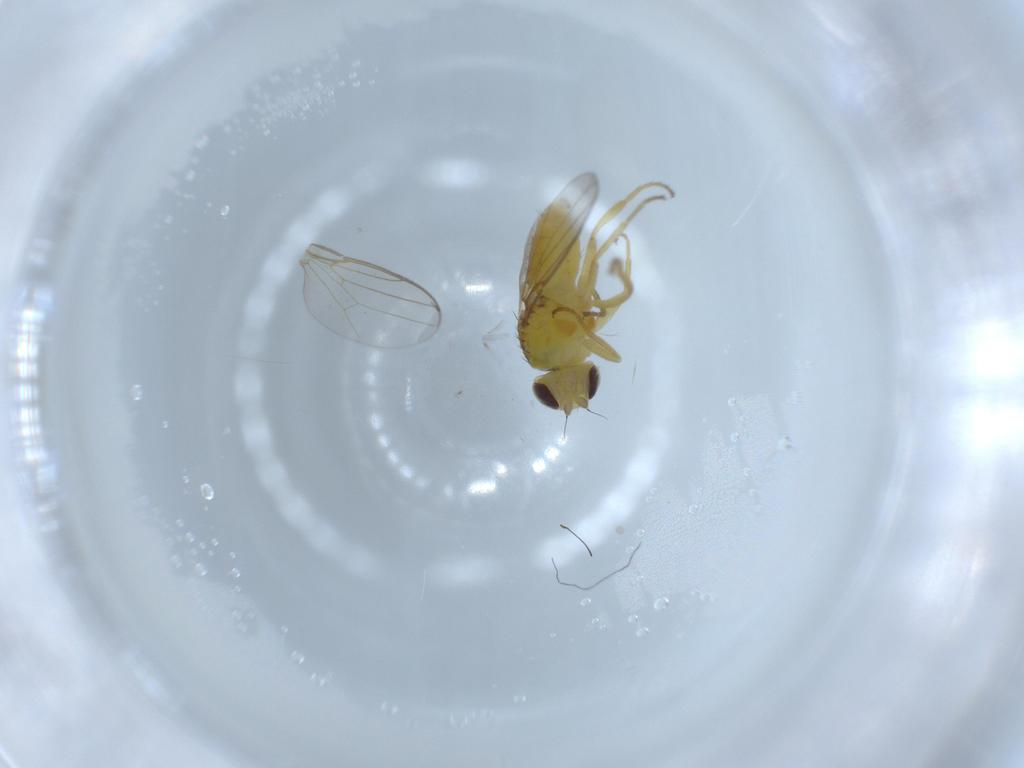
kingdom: Animalia
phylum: Arthropoda
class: Insecta
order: Diptera
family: Chloropidae
